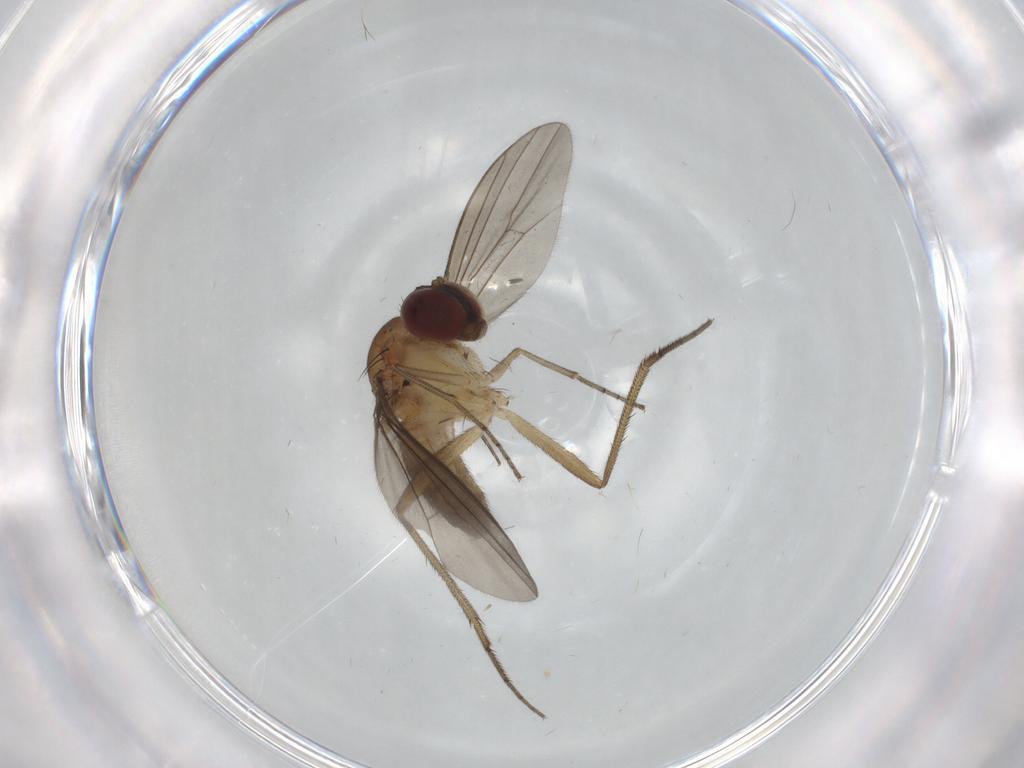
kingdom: Animalia
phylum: Arthropoda
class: Insecta
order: Diptera
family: Dolichopodidae
